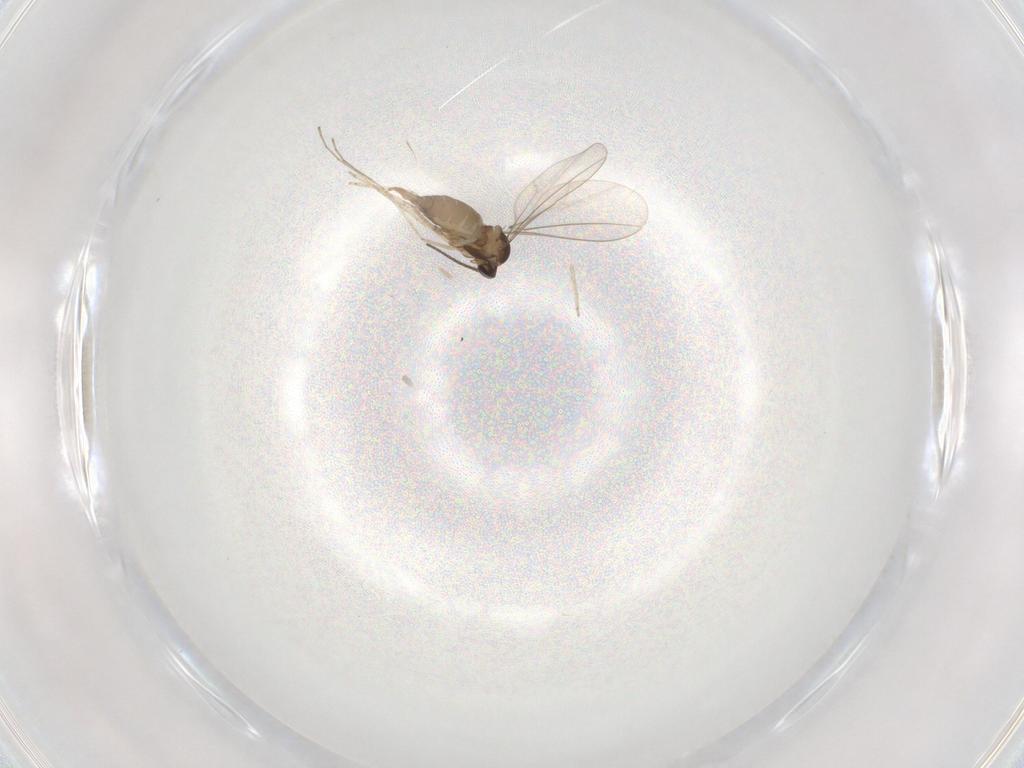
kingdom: Animalia
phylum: Arthropoda
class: Insecta
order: Diptera
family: Cecidomyiidae
